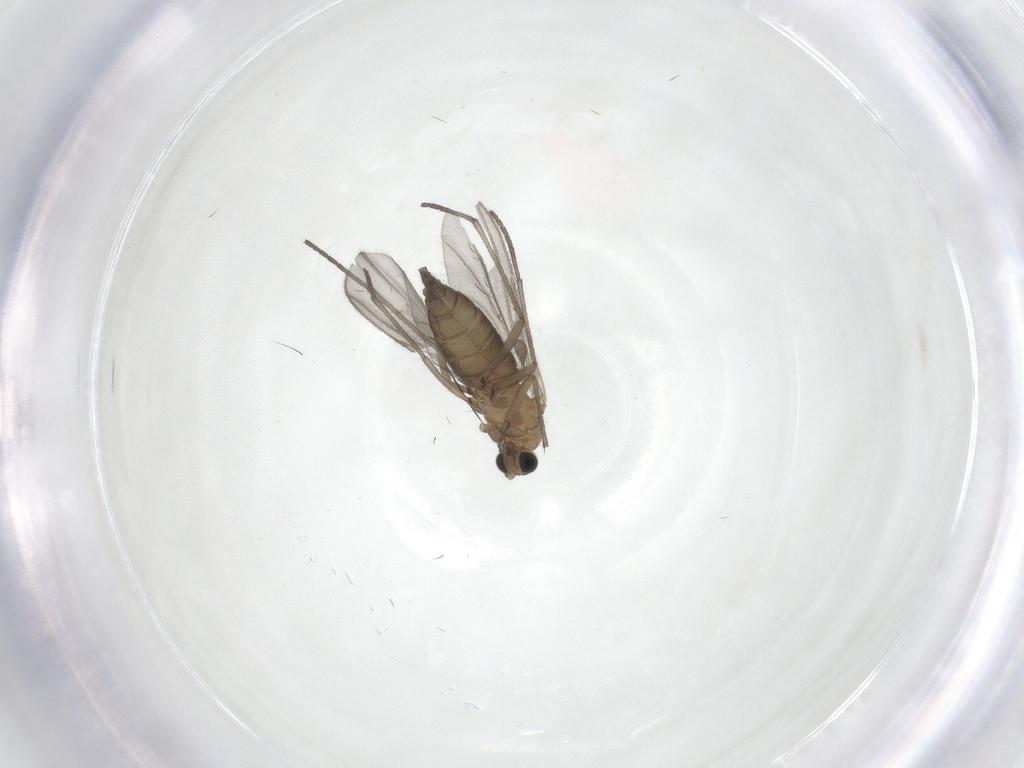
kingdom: Animalia
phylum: Arthropoda
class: Insecta
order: Diptera
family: Sciaridae
